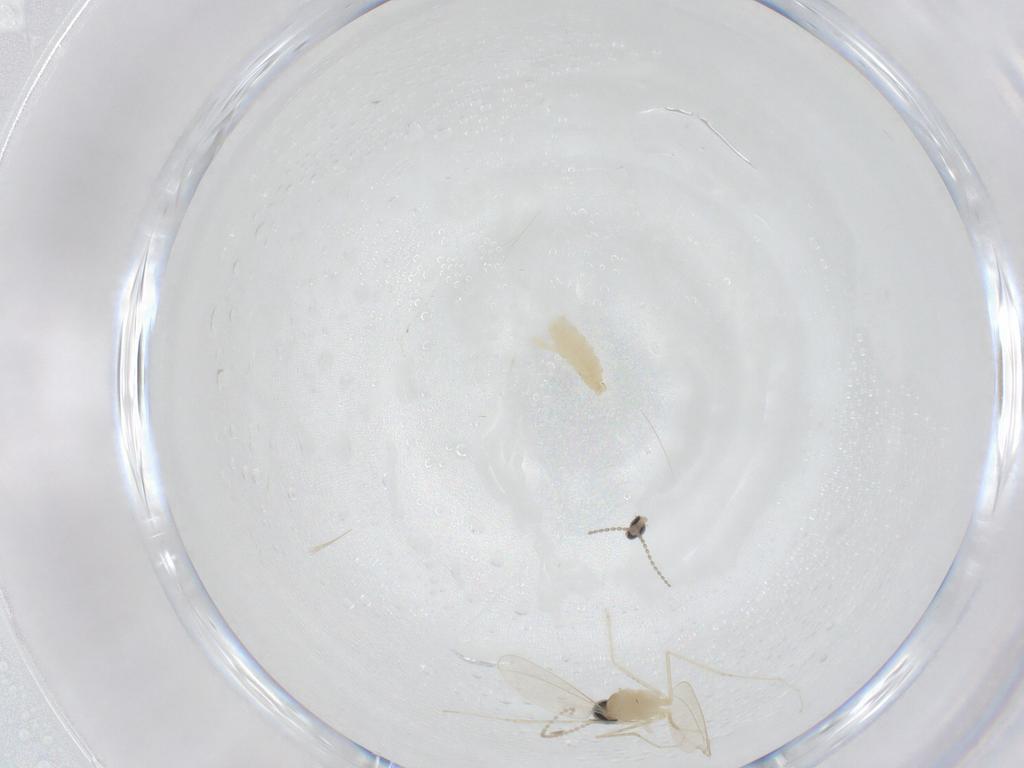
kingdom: Animalia
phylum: Arthropoda
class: Insecta
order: Diptera
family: Cecidomyiidae
